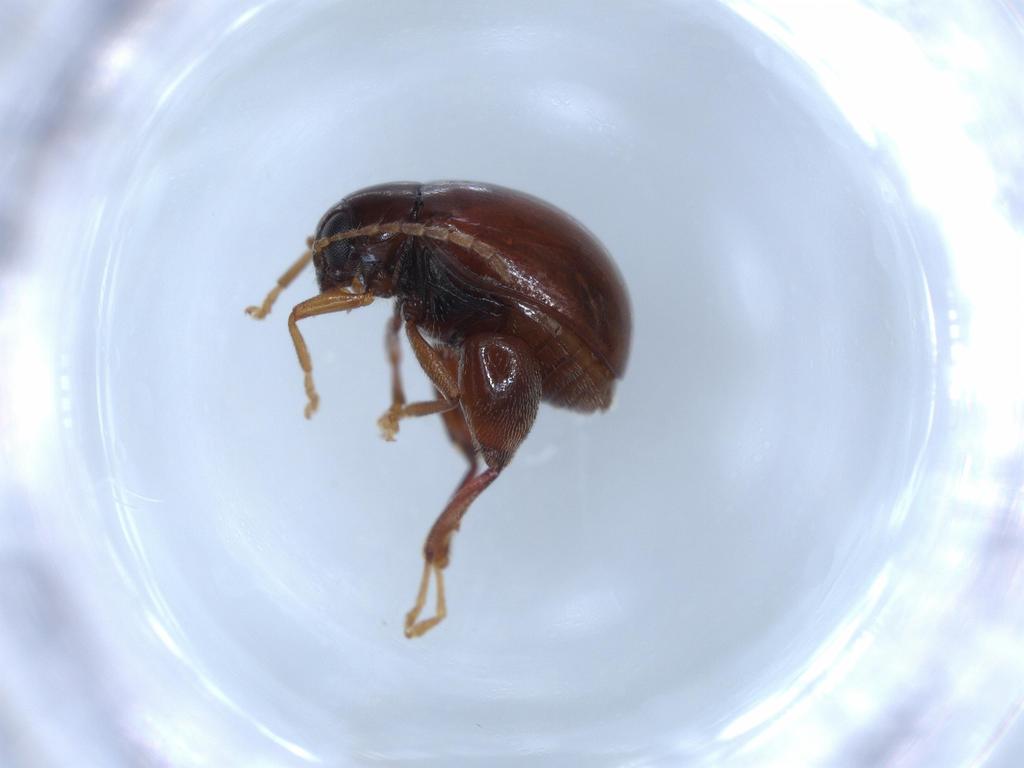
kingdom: Animalia
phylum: Arthropoda
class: Insecta
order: Coleoptera
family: Chrysomelidae
